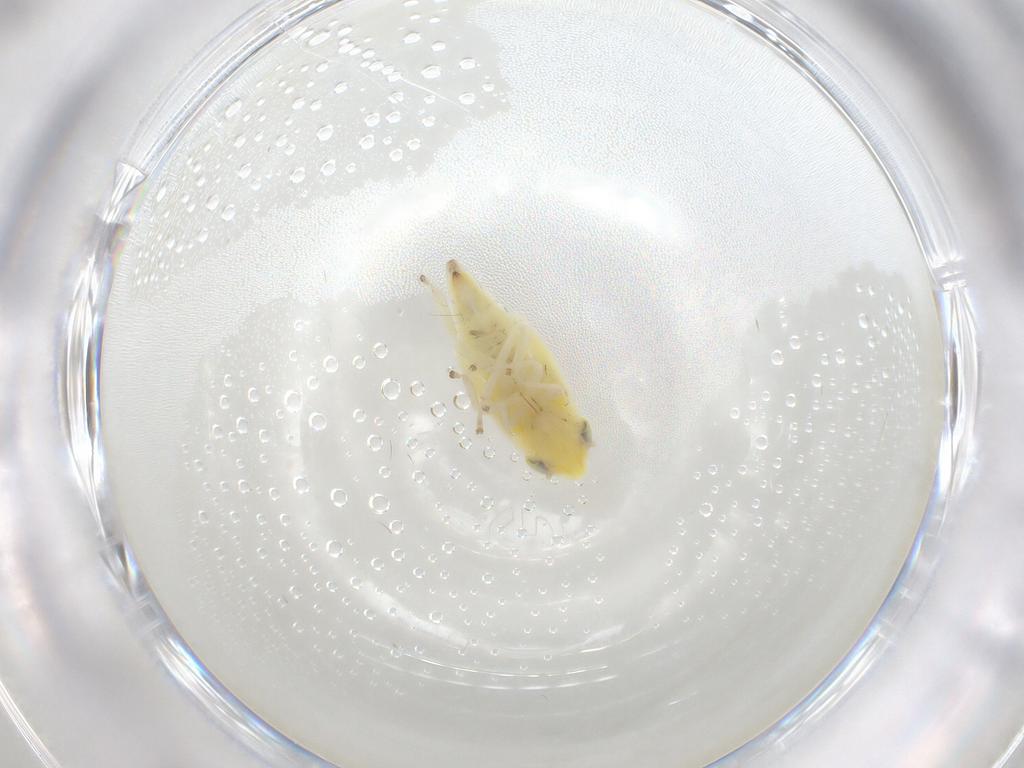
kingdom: Animalia
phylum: Arthropoda
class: Insecta
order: Hemiptera
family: Cicadellidae
